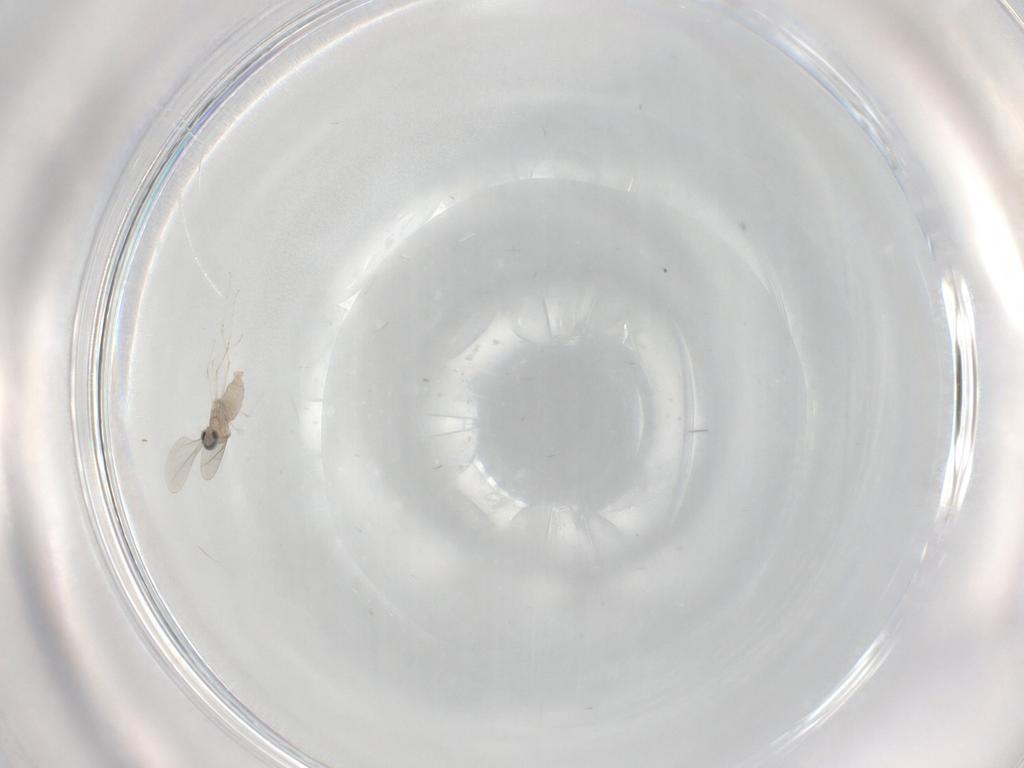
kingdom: Animalia
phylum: Arthropoda
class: Insecta
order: Diptera
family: Cecidomyiidae
